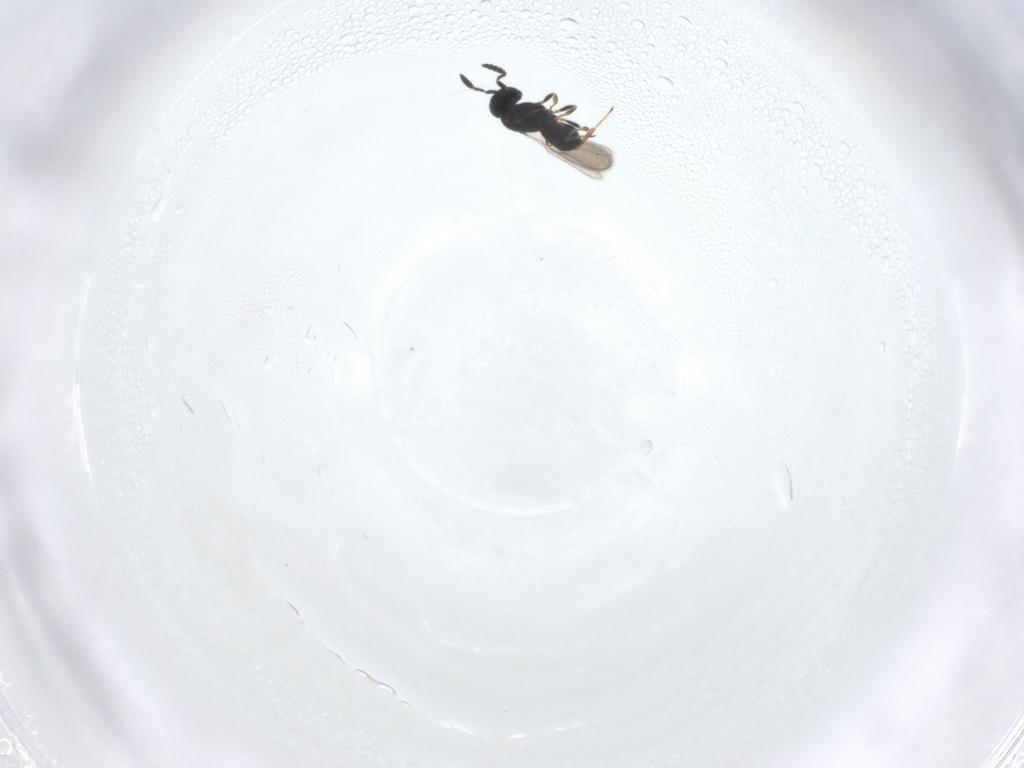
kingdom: Animalia
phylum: Arthropoda
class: Insecta
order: Hymenoptera
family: Scelionidae
